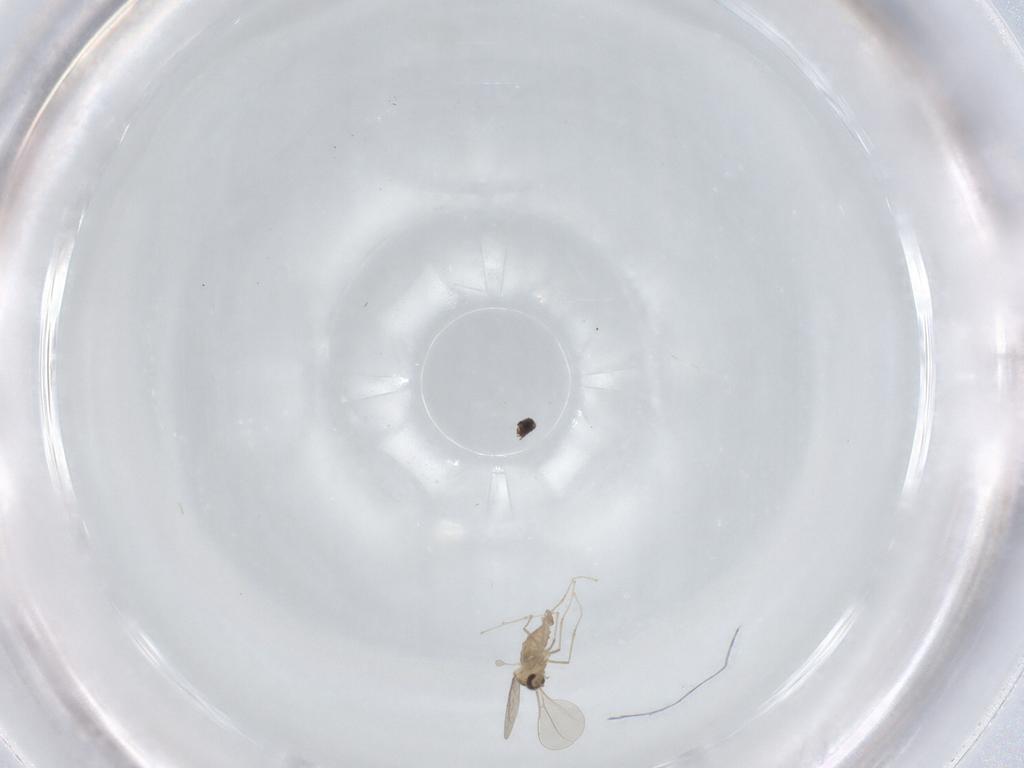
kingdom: Animalia
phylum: Arthropoda
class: Insecta
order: Diptera
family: Cecidomyiidae
